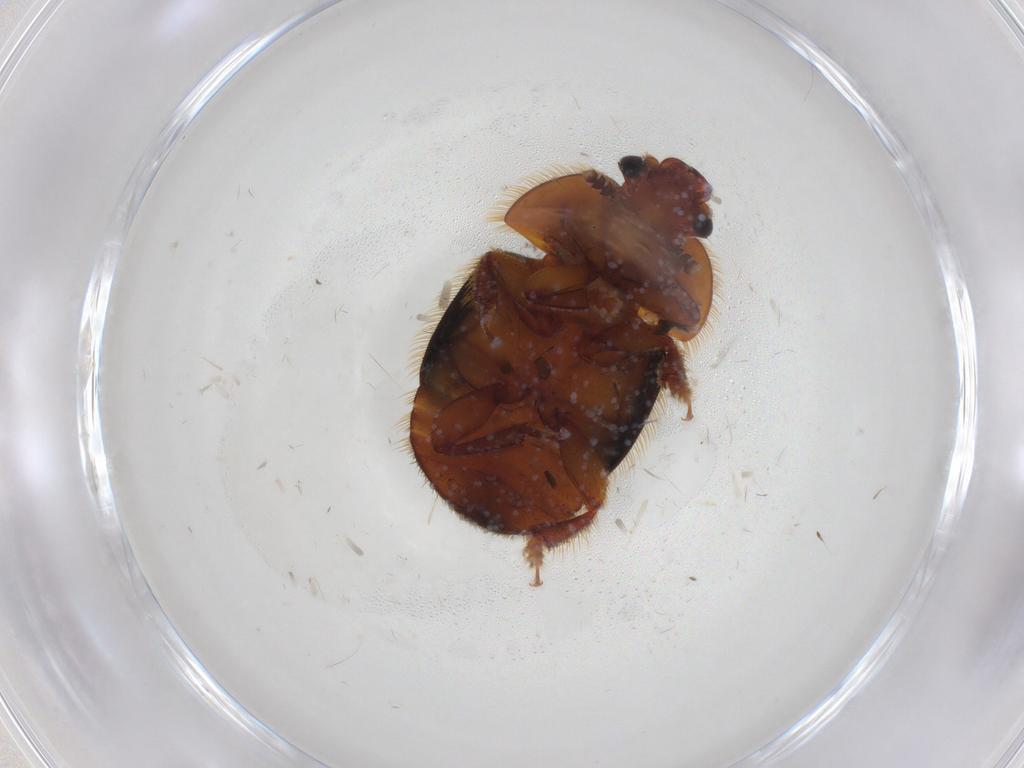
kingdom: Animalia
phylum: Arthropoda
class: Insecta
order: Coleoptera
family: Nitidulidae
